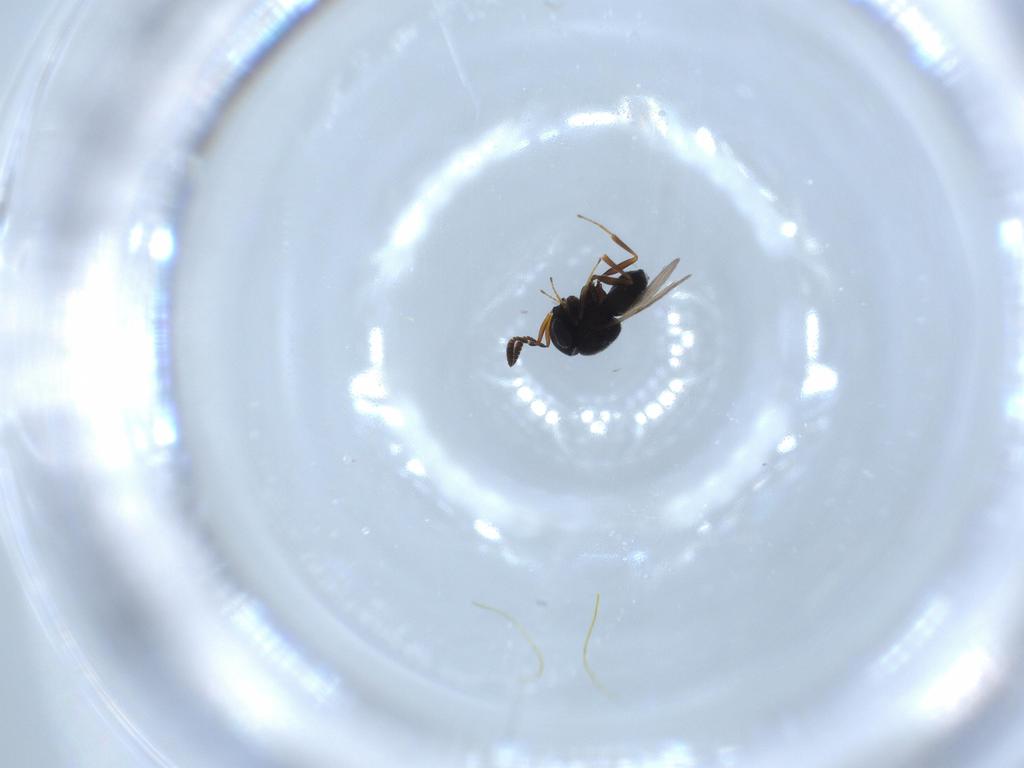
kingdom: Animalia
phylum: Arthropoda
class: Insecta
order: Hymenoptera
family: Scelionidae
